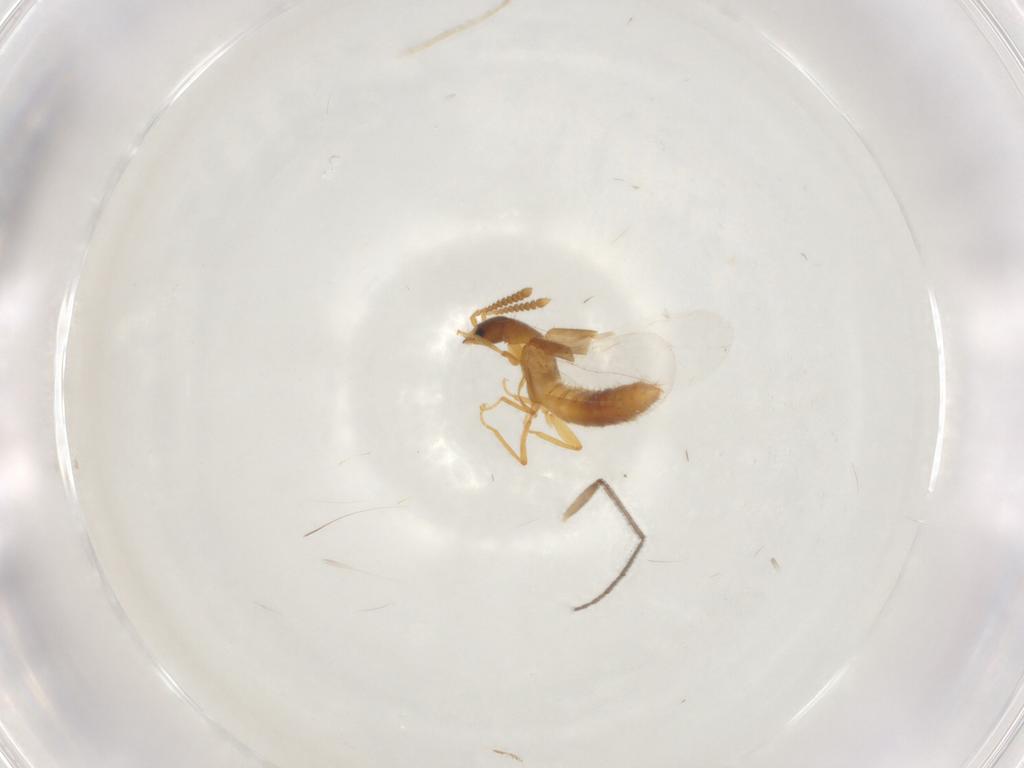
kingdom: Animalia
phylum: Arthropoda
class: Insecta
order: Coleoptera
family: Staphylinidae
